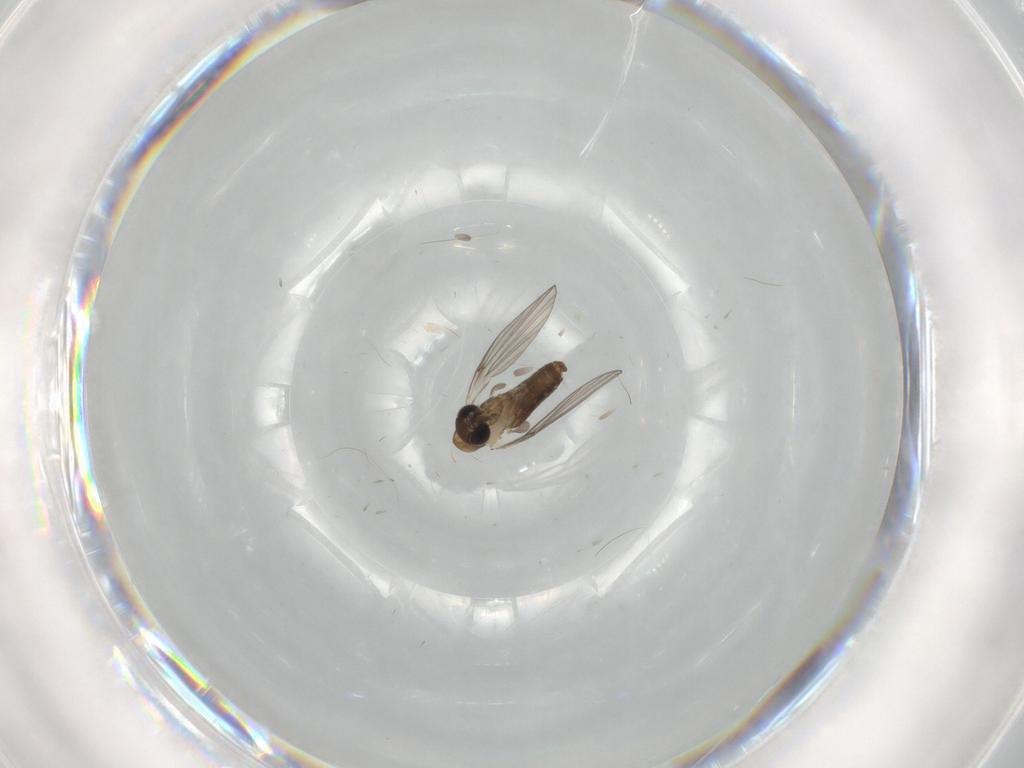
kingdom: Animalia
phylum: Arthropoda
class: Insecta
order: Diptera
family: Psychodidae
